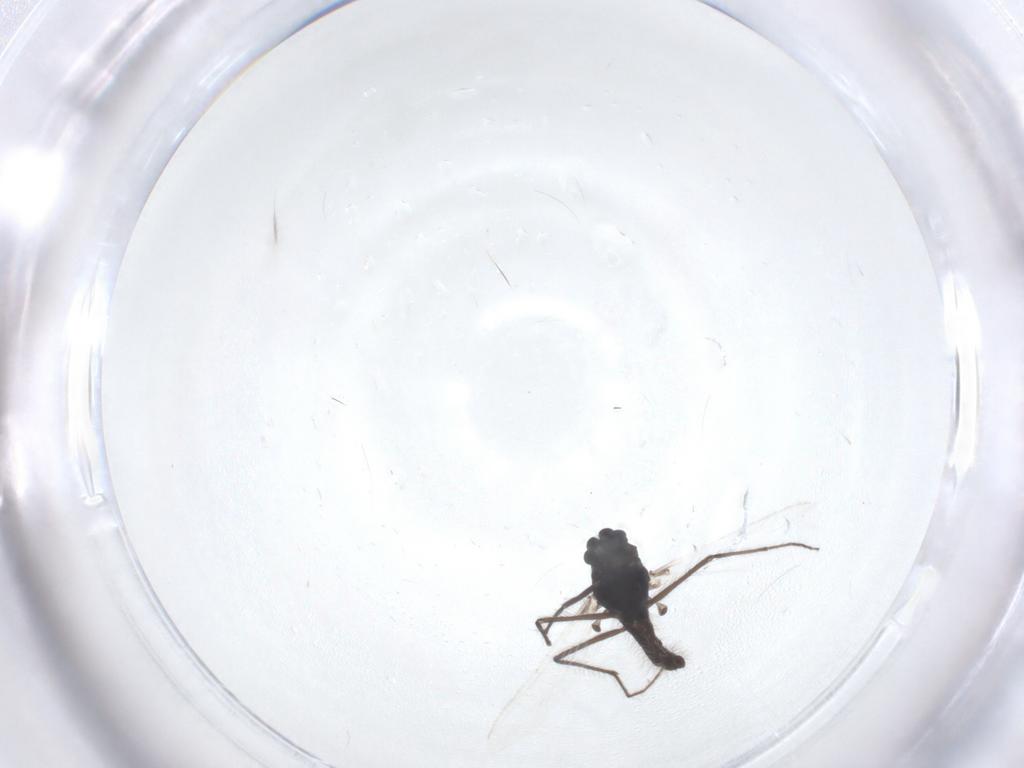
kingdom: Animalia
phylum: Arthropoda
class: Insecta
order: Diptera
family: Chironomidae
